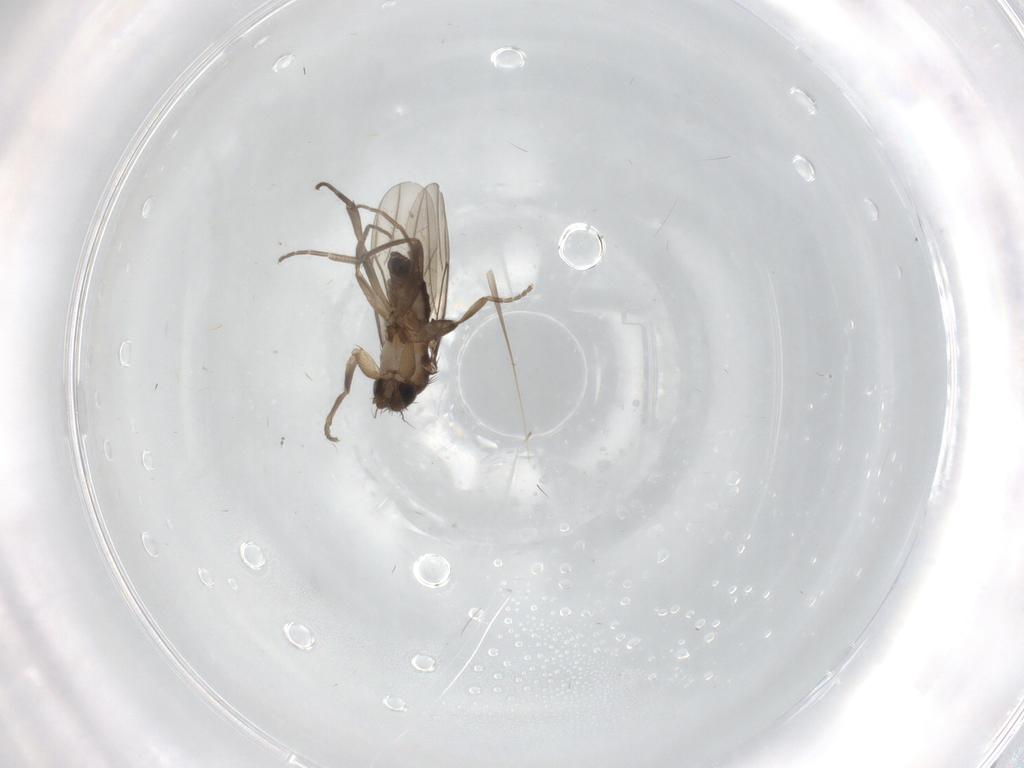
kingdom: Animalia
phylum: Arthropoda
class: Insecta
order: Diptera
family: Phoridae
